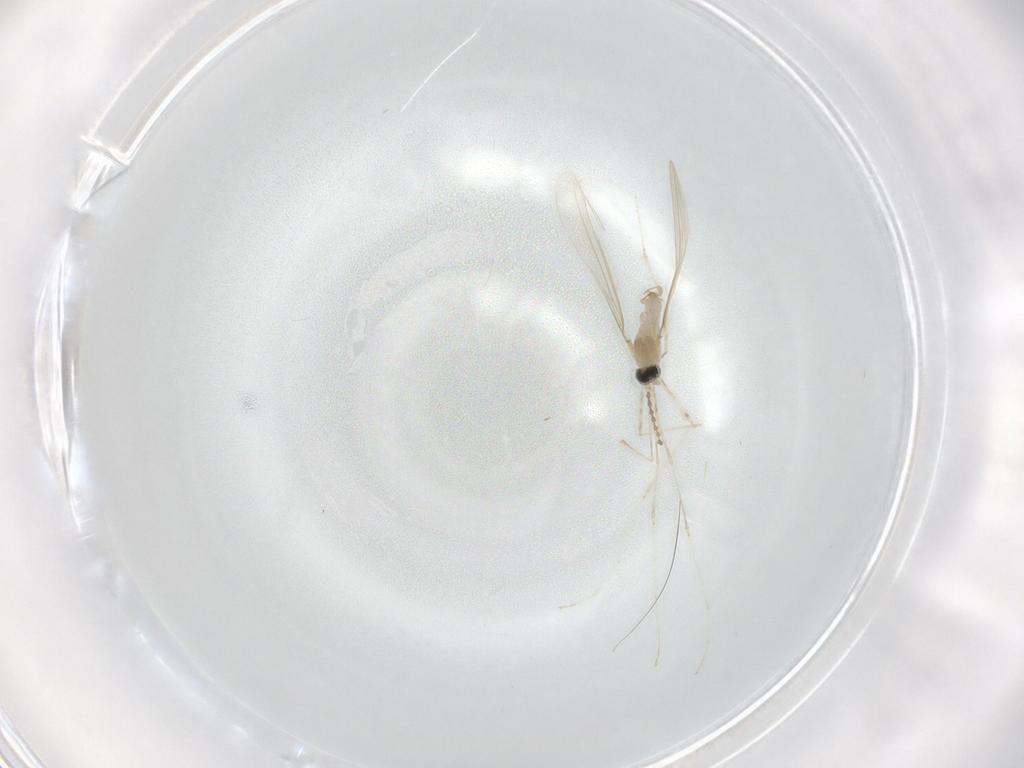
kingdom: Animalia
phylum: Arthropoda
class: Insecta
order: Diptera
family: Cecidomyiidae
